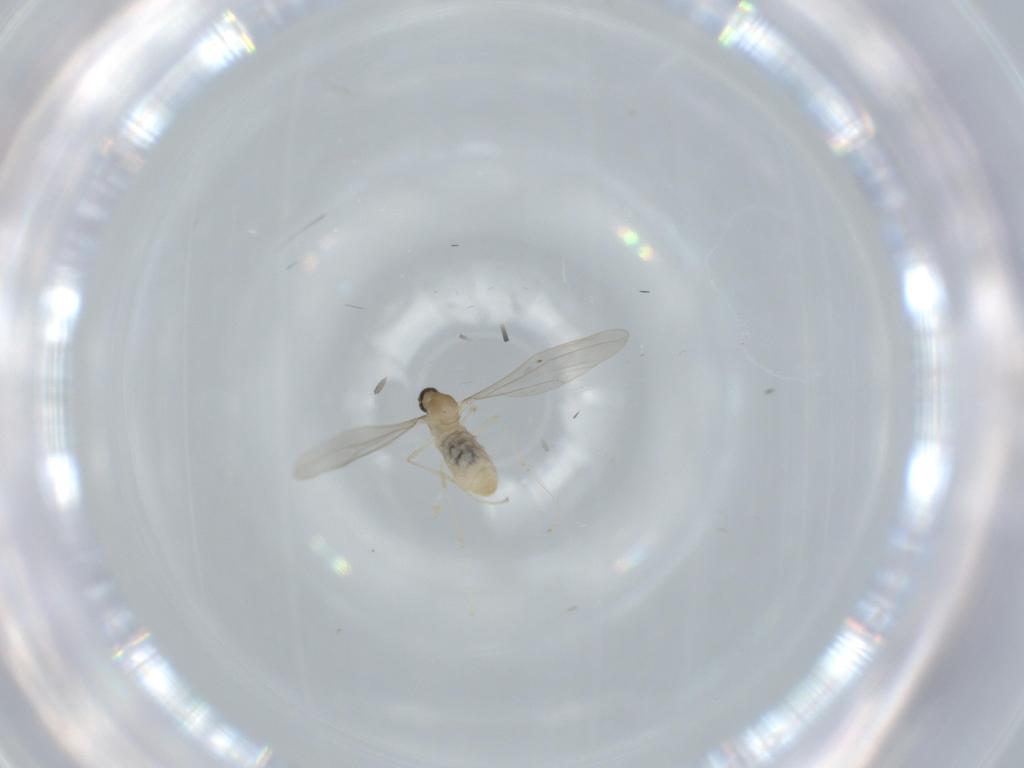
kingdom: Animalia
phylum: Arthropoda
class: Insecta
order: Diptera
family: Cecidomyiidae
